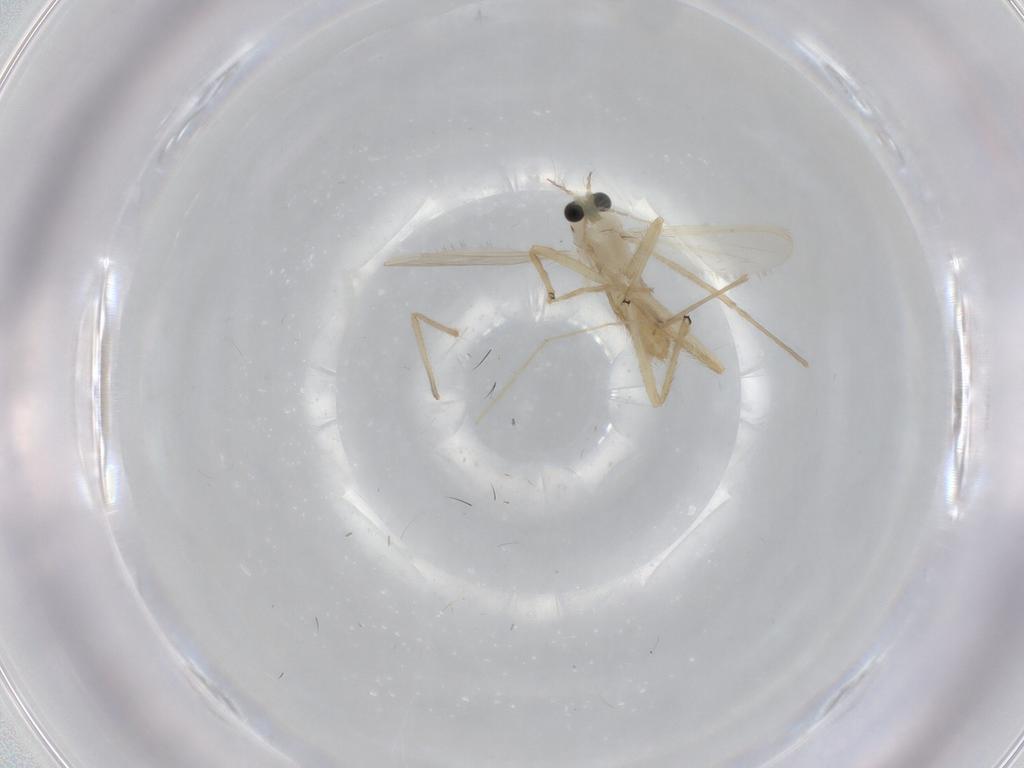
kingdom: Animalia
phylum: Arthropoda
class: Insecta
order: Diptera
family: Chironomidae
